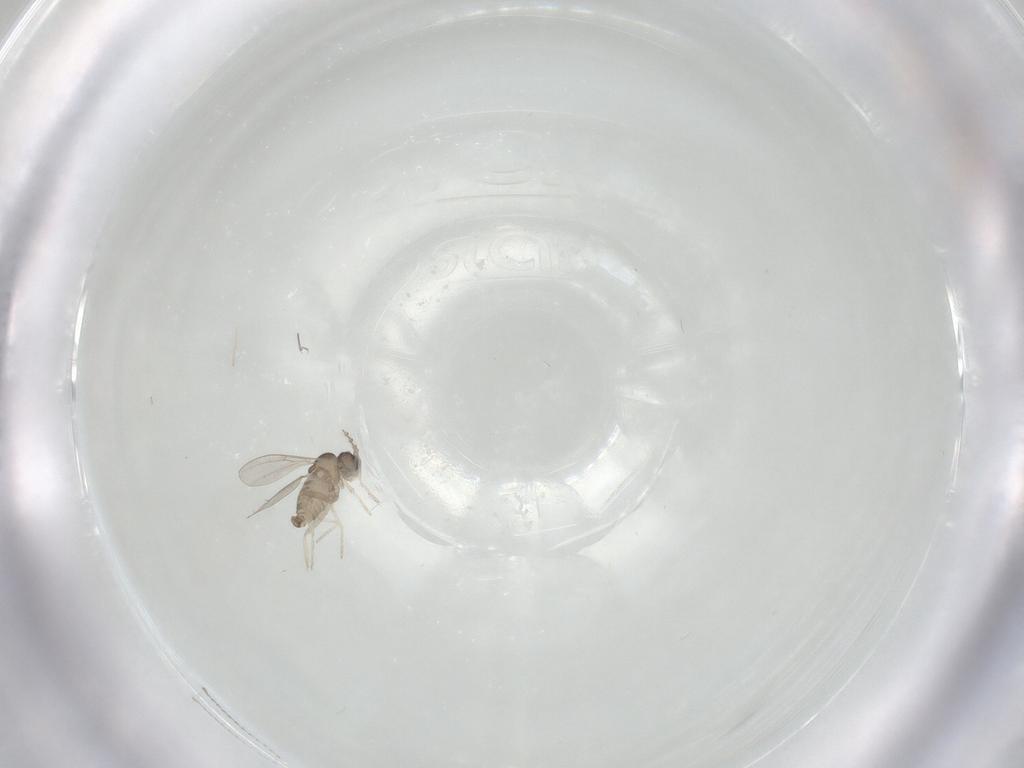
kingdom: Animalia
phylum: Arthropoda
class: Insecta
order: Diptera
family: Cecidomyiidae
